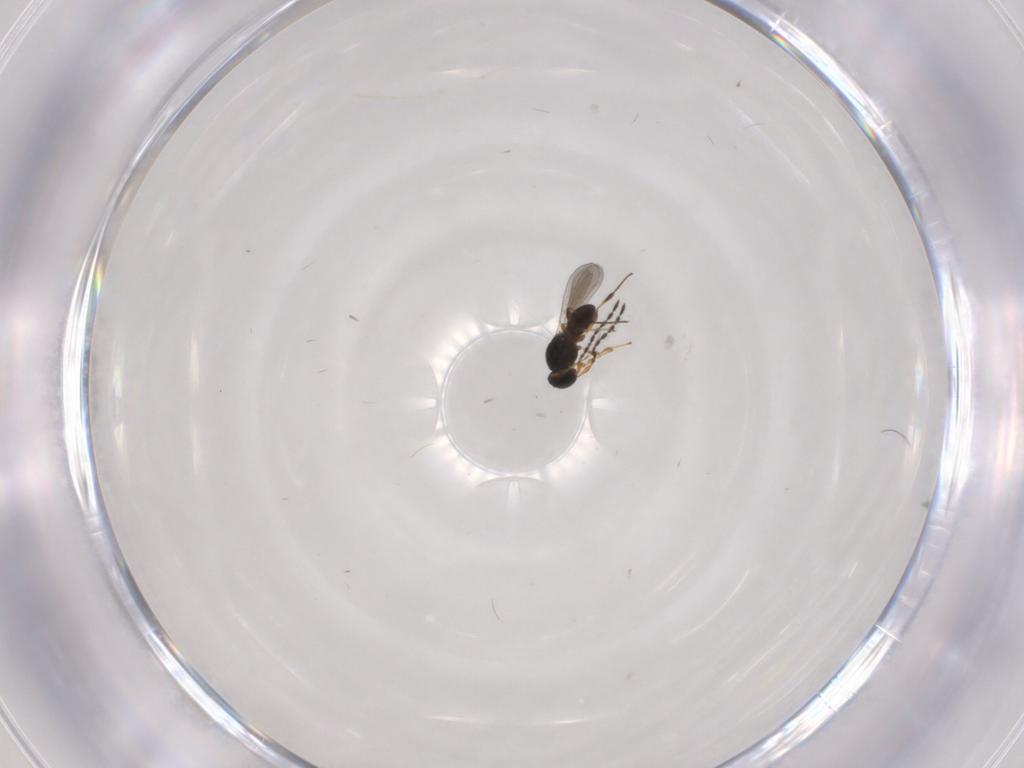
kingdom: Animalia
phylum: Arthropoda
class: Insecta
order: Hymenoptera
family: Platygastridae
